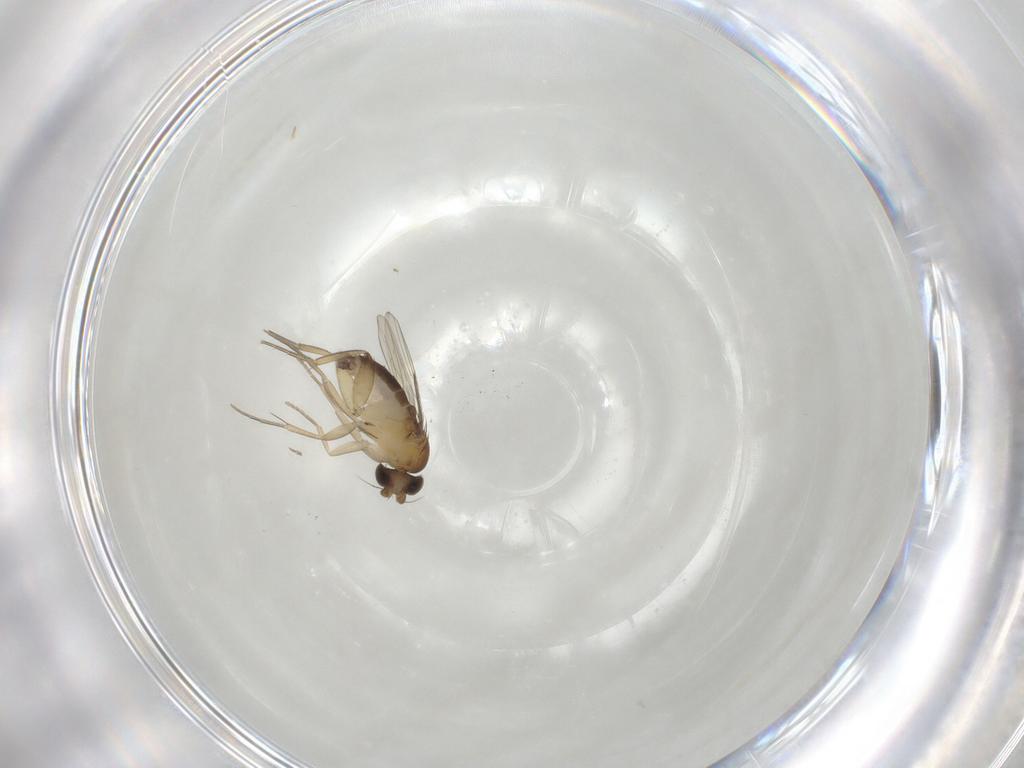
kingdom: Animalia
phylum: Arthropoda
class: Insecta
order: Diptera
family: Phoridae
